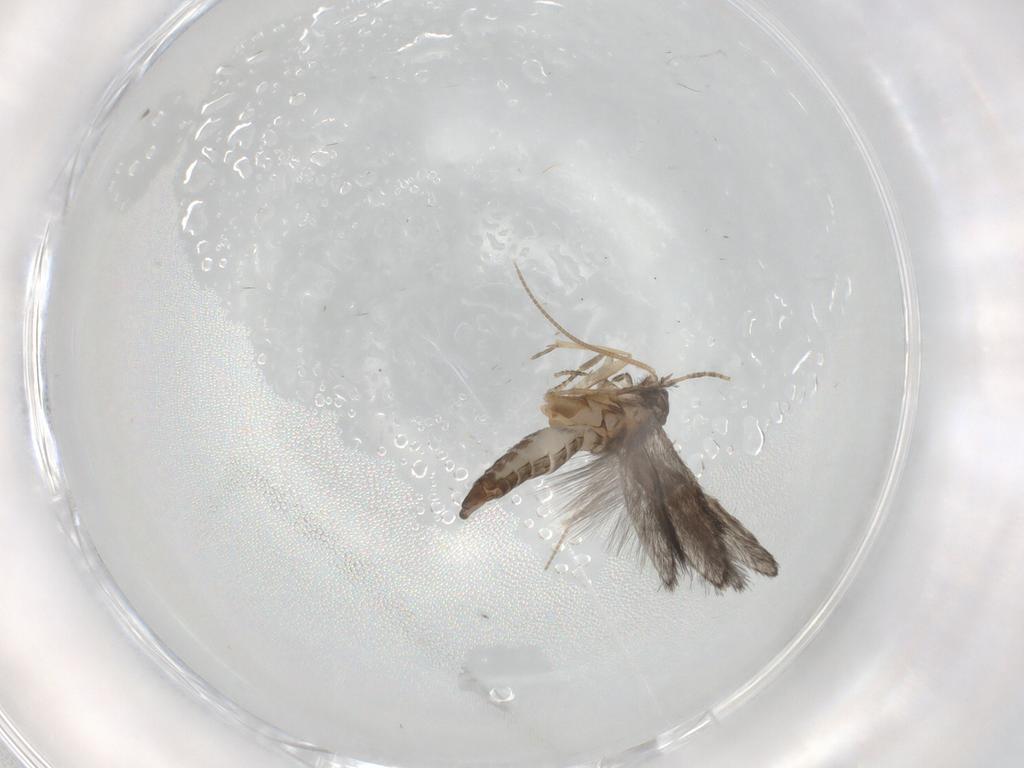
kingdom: Animalia
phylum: Arthropoda
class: Insecta
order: Trichoptera
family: Hydroptilidae
